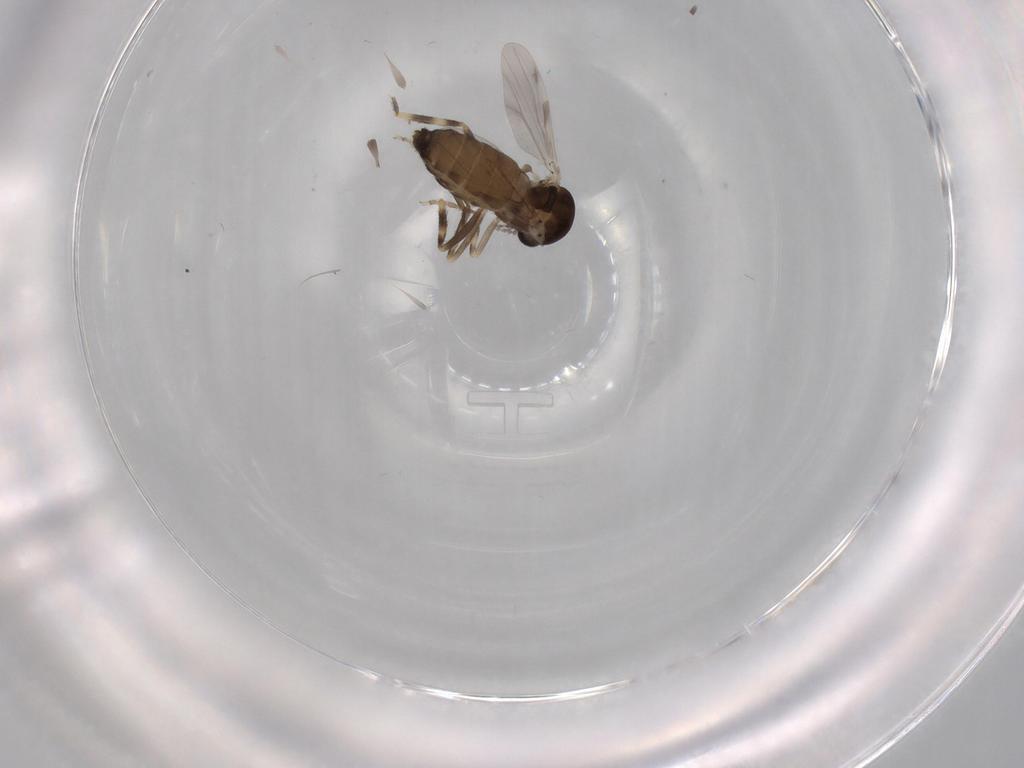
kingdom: Animalia
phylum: Arthropoda
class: Insecta
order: Diptera
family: Ceratopogonidae
